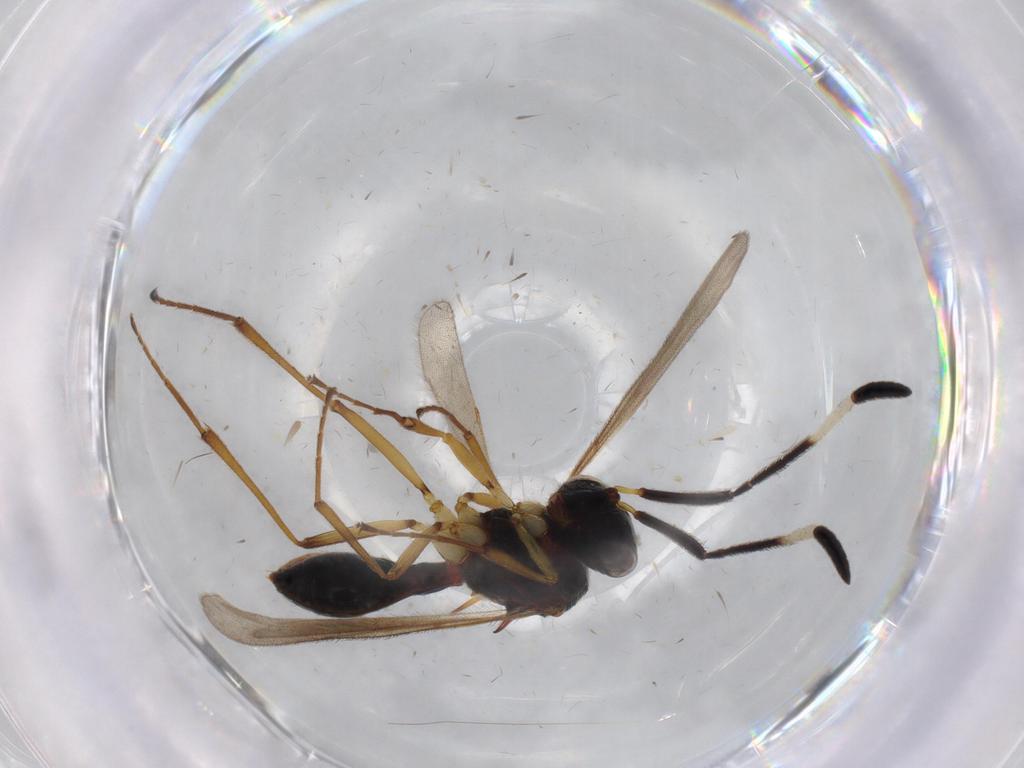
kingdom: Animalia
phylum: Arthropoda
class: Insecta
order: Hymenoptera
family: Scelionidae
